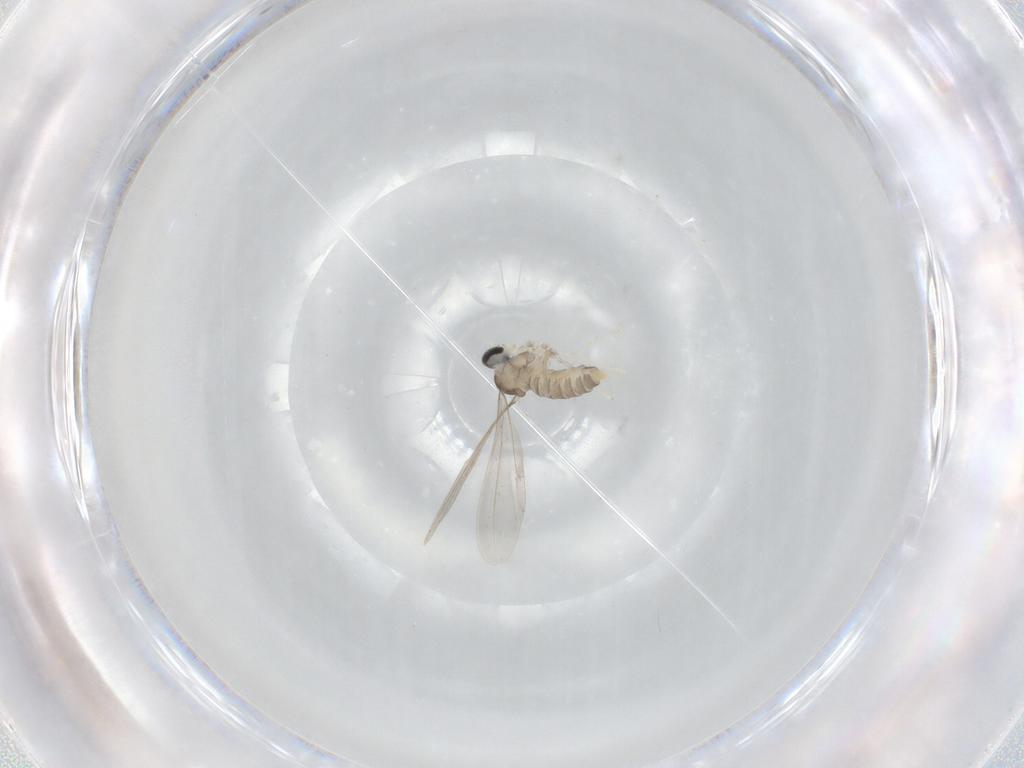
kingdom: Animalia
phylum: Arthropoda
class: Insecta
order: Diptera
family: Cecidomyiidae
